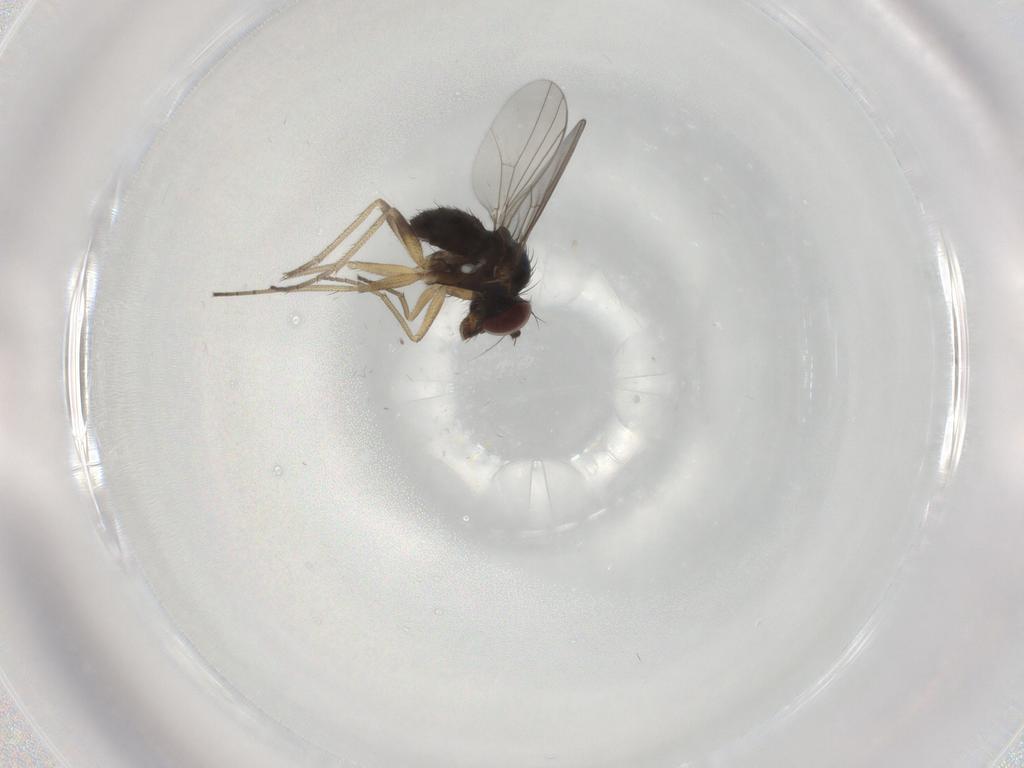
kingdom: Animalia
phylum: Arthropoda
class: Insecta
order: Diptera
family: Dolichopodidae
